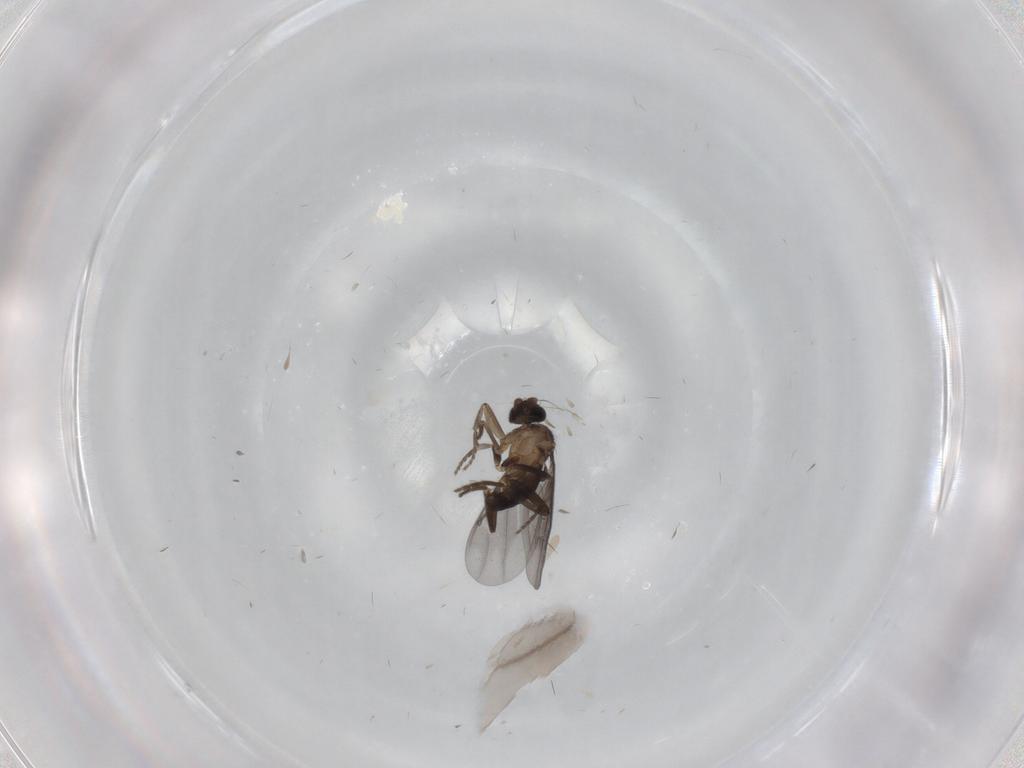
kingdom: Animalia
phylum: Arthropoda
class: Insecta
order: Diptera
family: Phoridae
